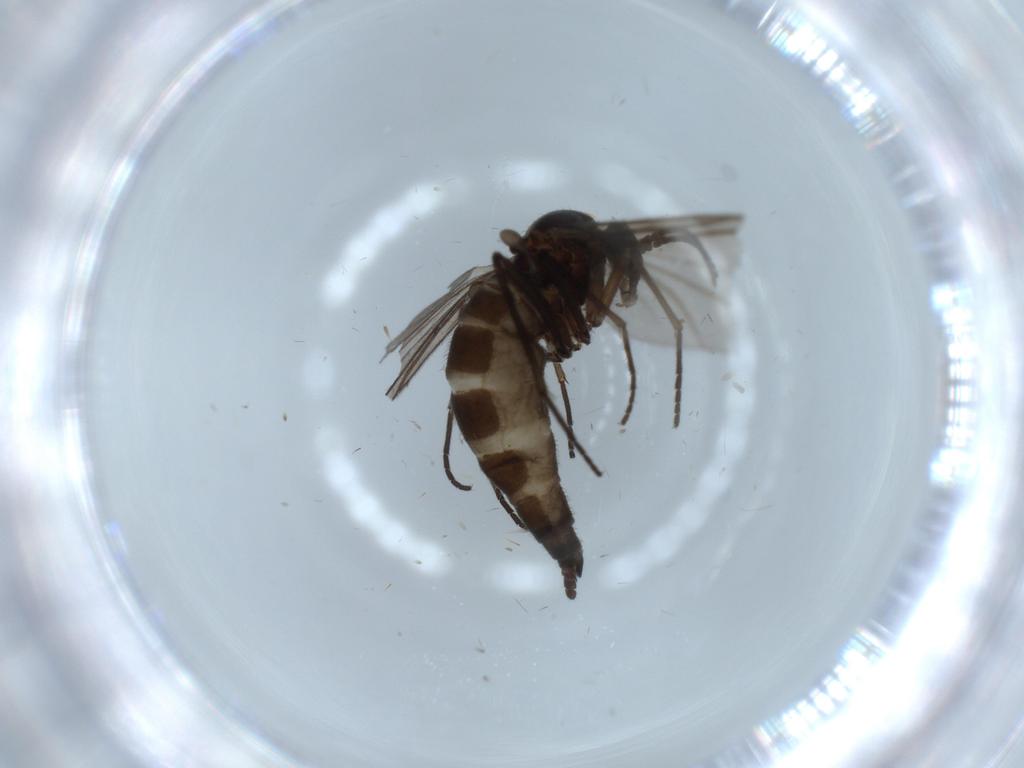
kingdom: Animalia
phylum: Arthropoda
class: Insecta
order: Diptera
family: Sciaridae
